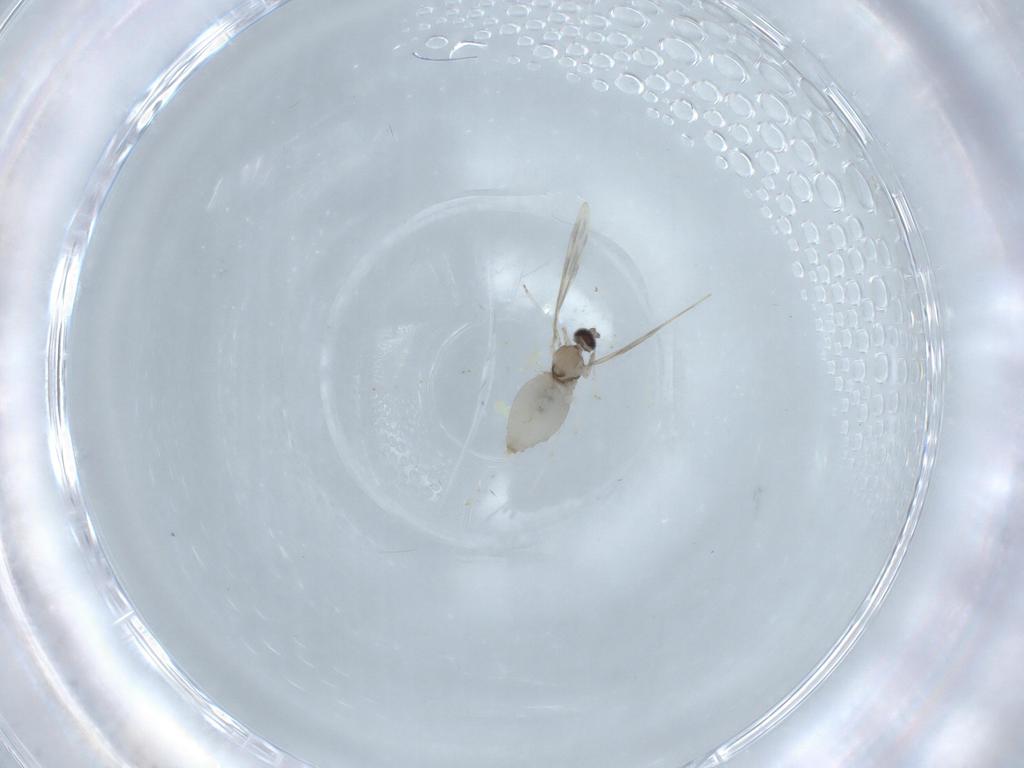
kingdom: Animalia
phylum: Arthropoda
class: Insecta
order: Diptera
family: Cecidomyiidae
